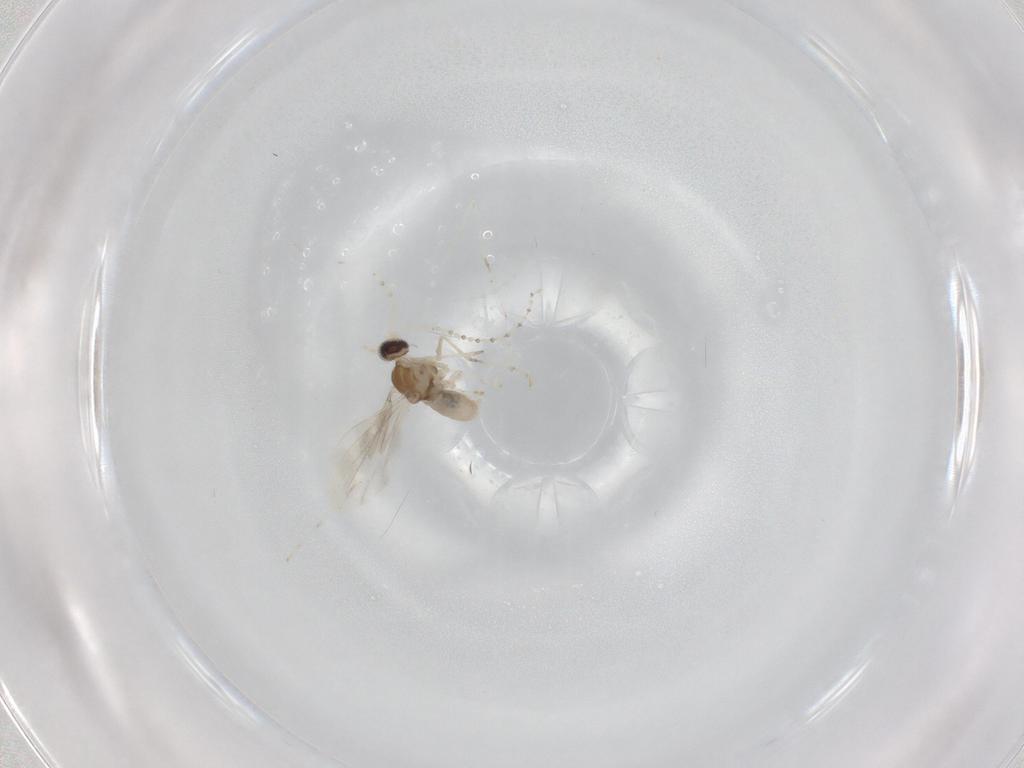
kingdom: Animalia
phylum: Arthropoda
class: Insecta
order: Diptera
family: Cecidomyiidae
